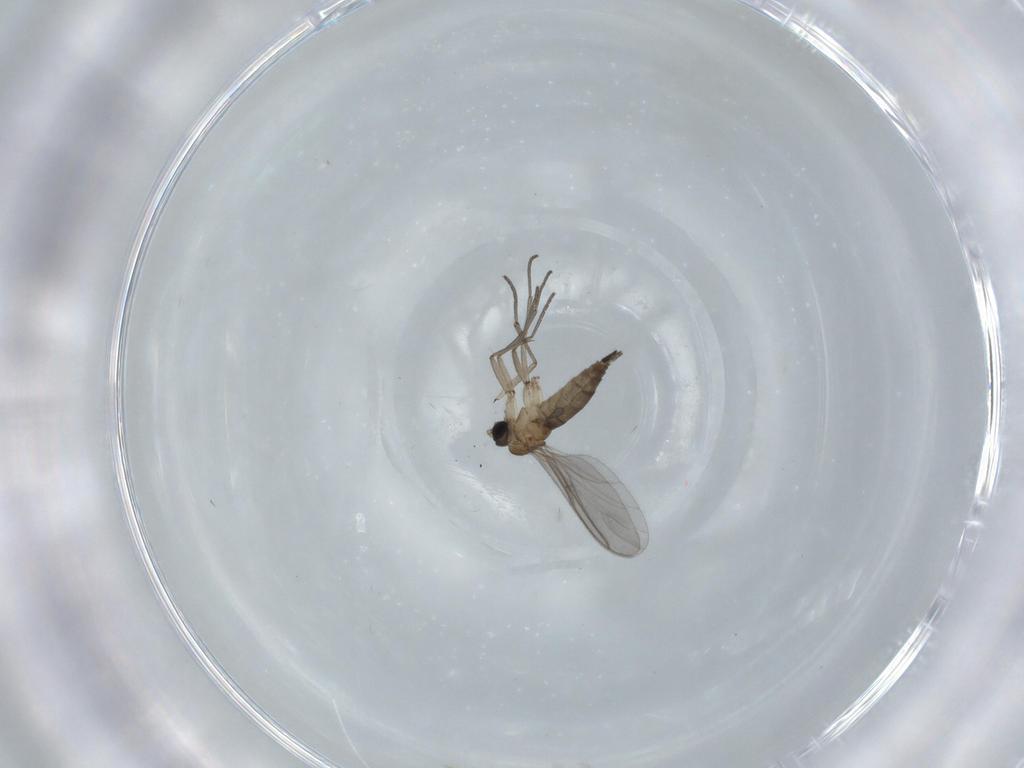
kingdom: Animalia
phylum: Arthropoda
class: Insecta
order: Diptera
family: Sciaridae
